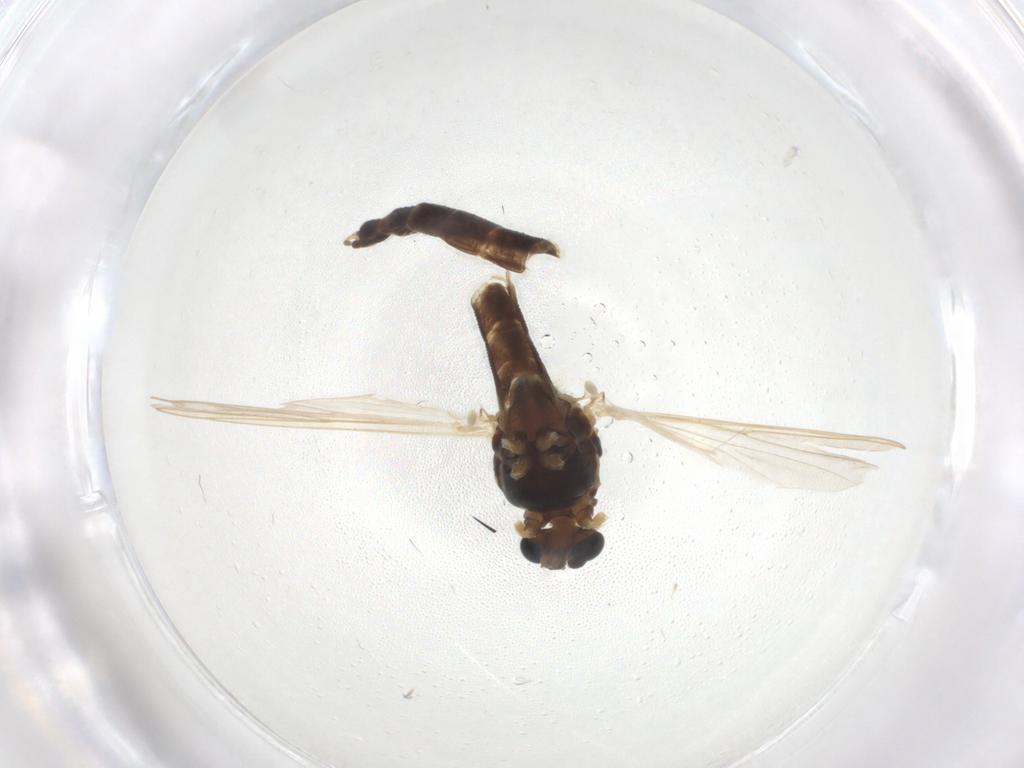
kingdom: Animalia
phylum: Arthropoda
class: Insecta
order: Diptera
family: Chironomidae
